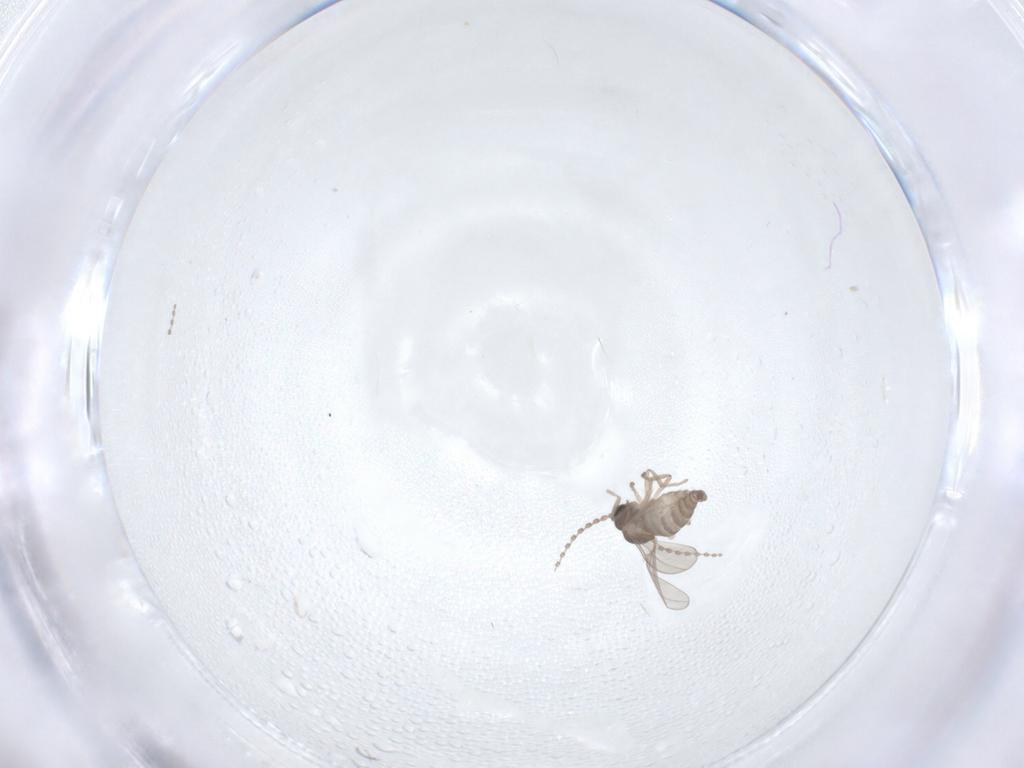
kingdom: Animalia
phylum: Arthropoda
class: Insecta
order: Diptera
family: Cecidomyiidae
